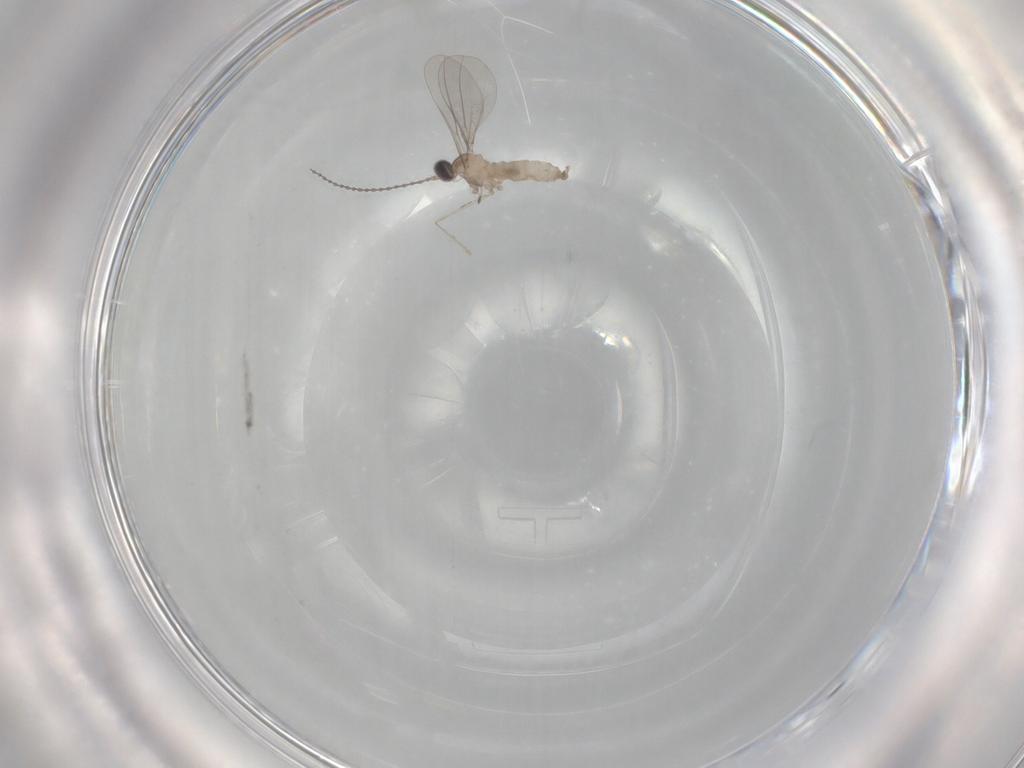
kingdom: Animalia
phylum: Arthropoda
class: Insecta
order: Diptera
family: Cecidomyiidae
